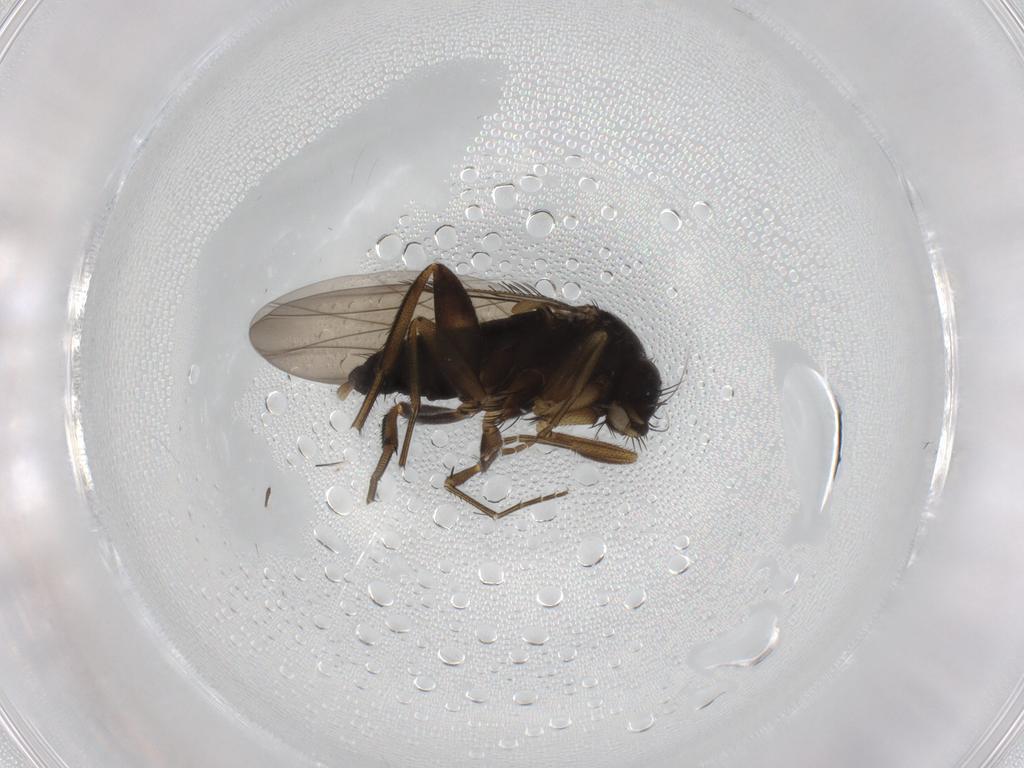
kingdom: Animalia
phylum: Arthropoda
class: Insecta
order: Diptera
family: Phoridae
